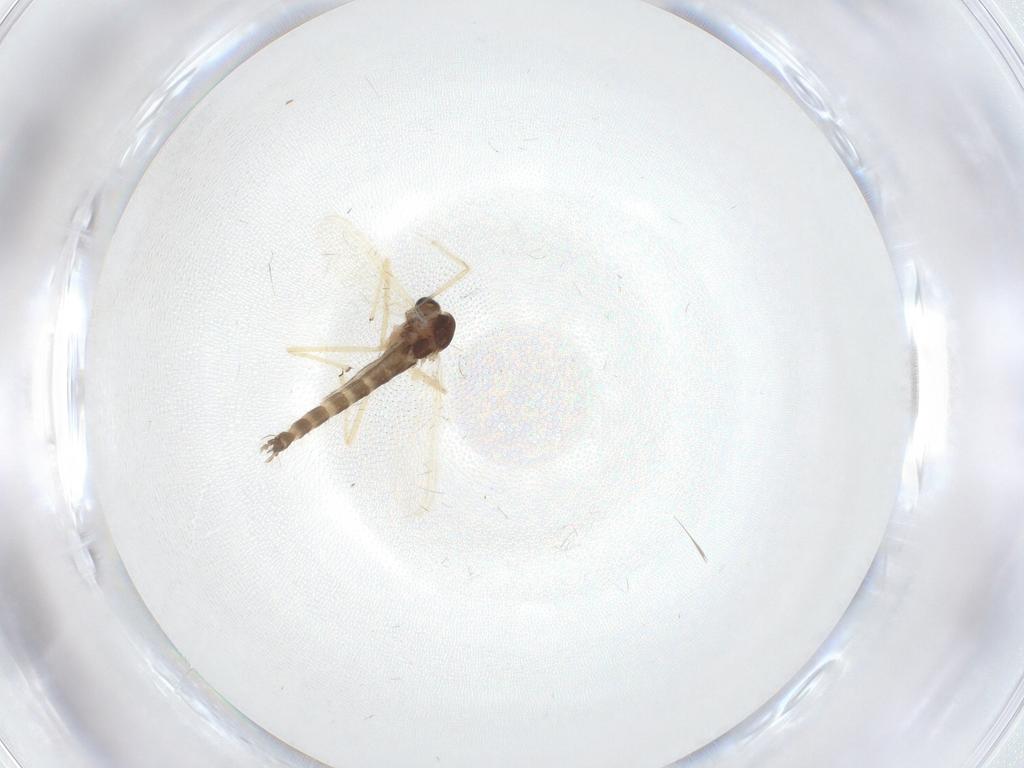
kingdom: Animalia
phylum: Arthropoda
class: Insecta
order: Diptera
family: Chironomidae
